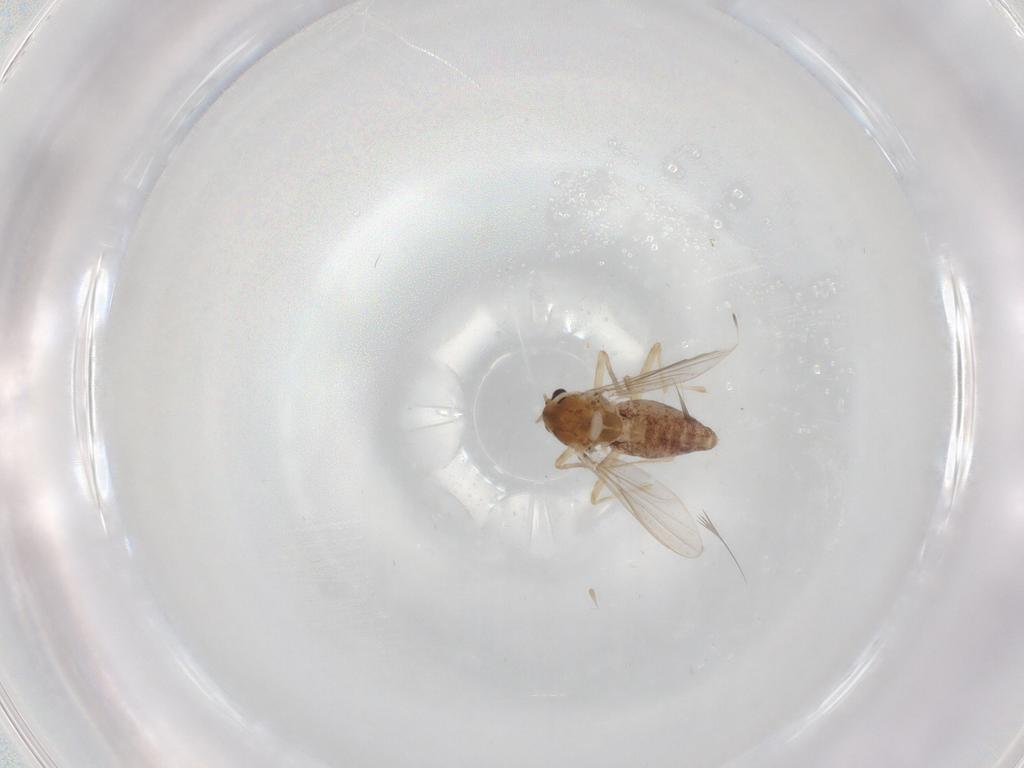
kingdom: Animalia
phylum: Arthropoda
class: Insecta
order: Diptera
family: Chironomidae
